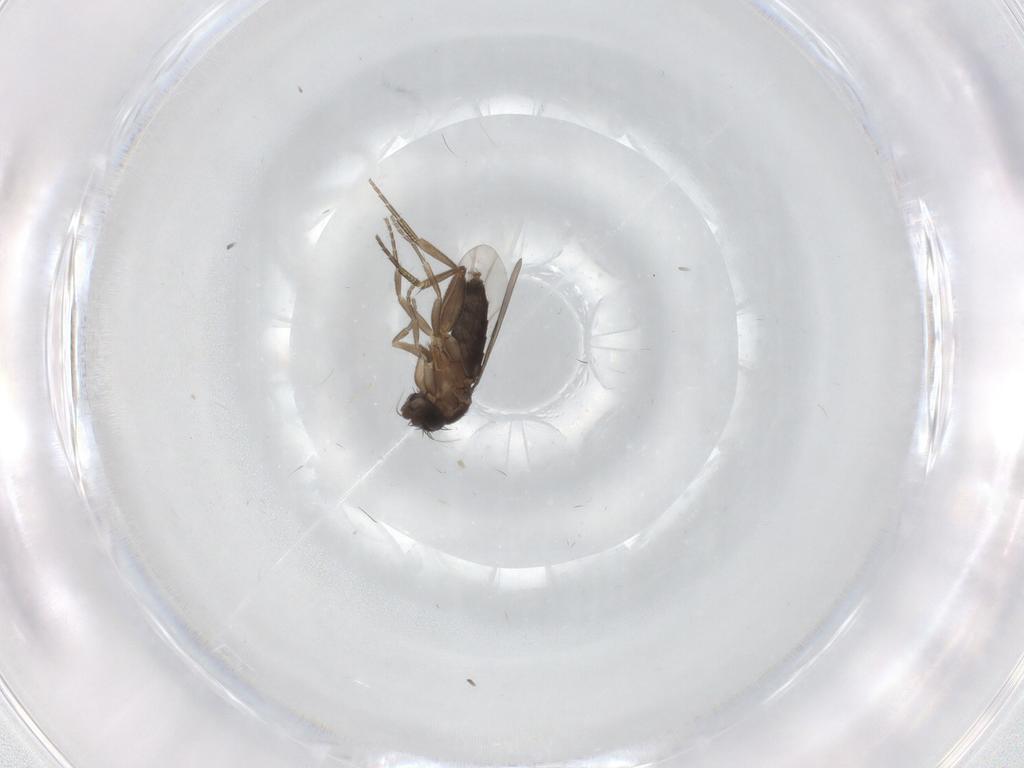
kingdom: Animalia
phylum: Arthropoda
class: Insecta
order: Diptera
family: Phoridae
